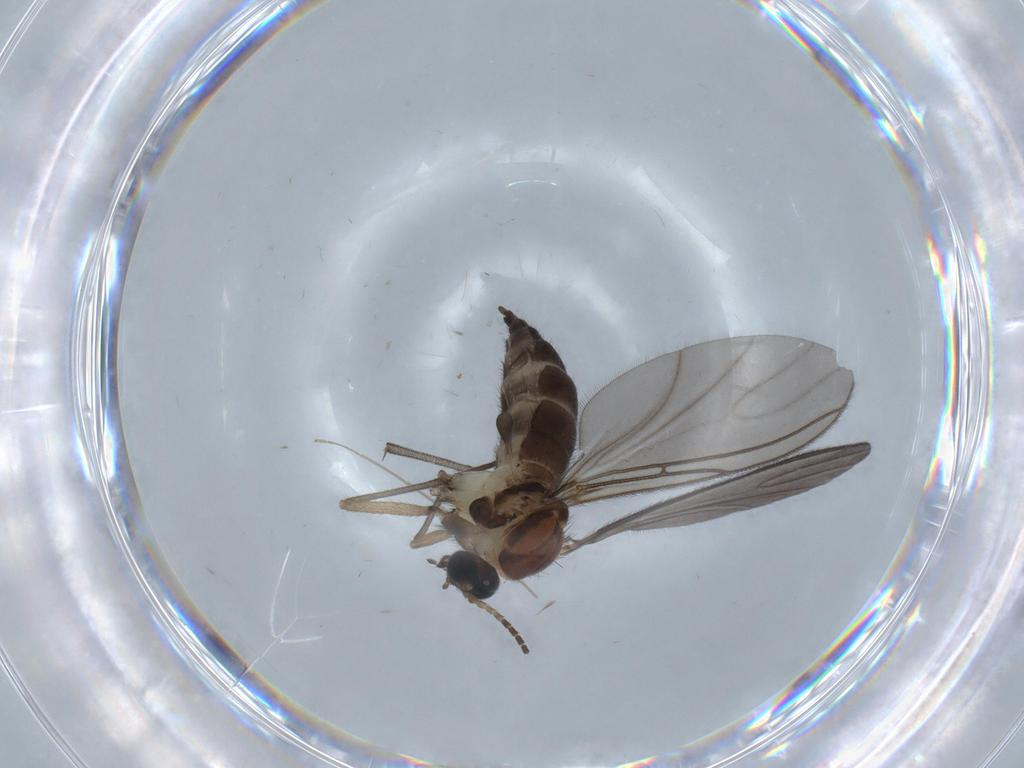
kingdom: Animalia
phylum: Arthropoda
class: Insecta
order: Diptera
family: Sciaridae
